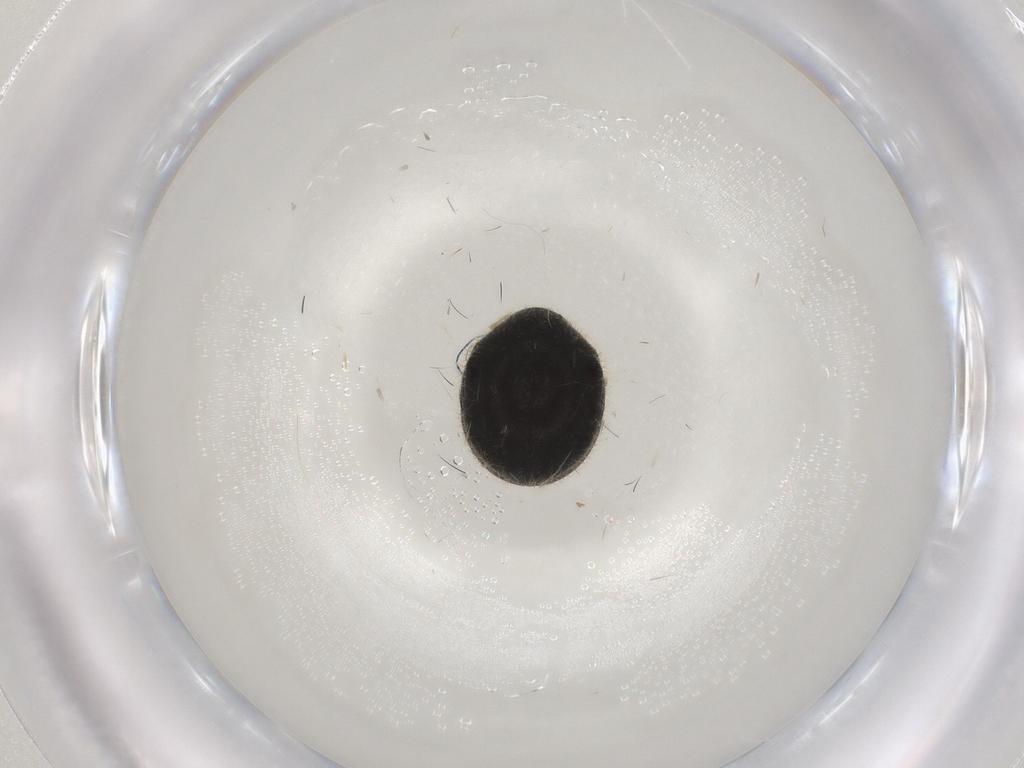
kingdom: Animalia
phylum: Arthropoda
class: Insecta
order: Coleoptera
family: Chrysomelidae
